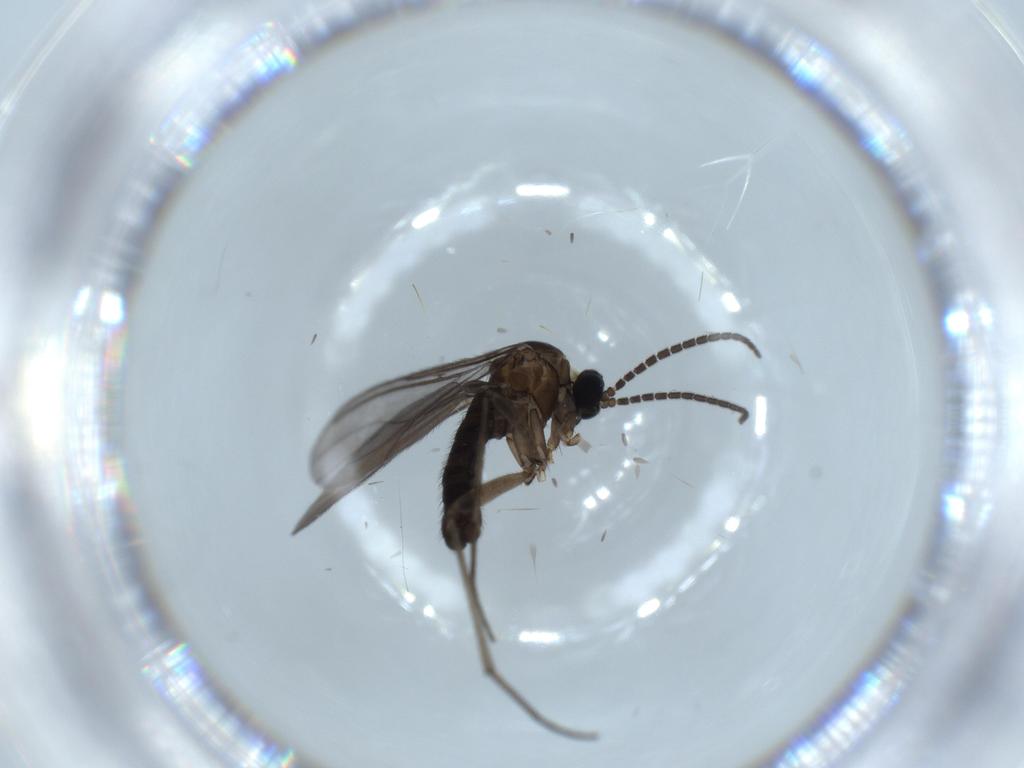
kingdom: Animalia
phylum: Arthropoda
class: Insecta
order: Diptera
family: Sciaridae
